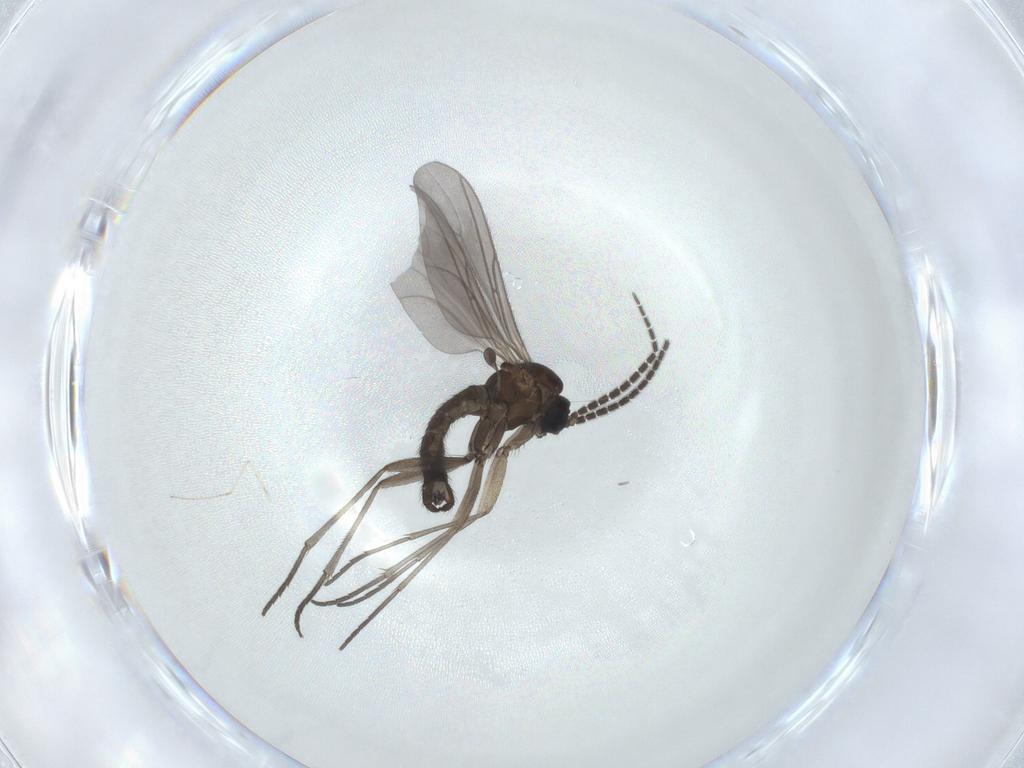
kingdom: Animalia
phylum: Arthropoda
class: Insecta
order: Diptera
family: Sciaridae
